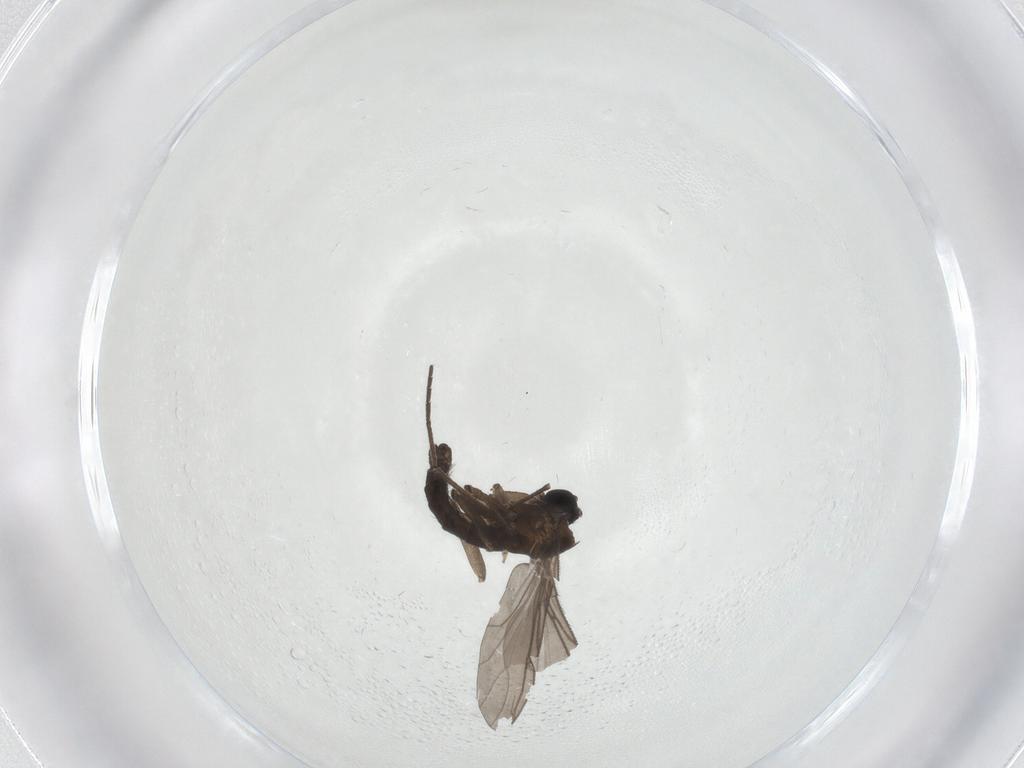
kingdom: Animalia
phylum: Arthropoda
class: Insecta
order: Diptera
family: Sciaridae
